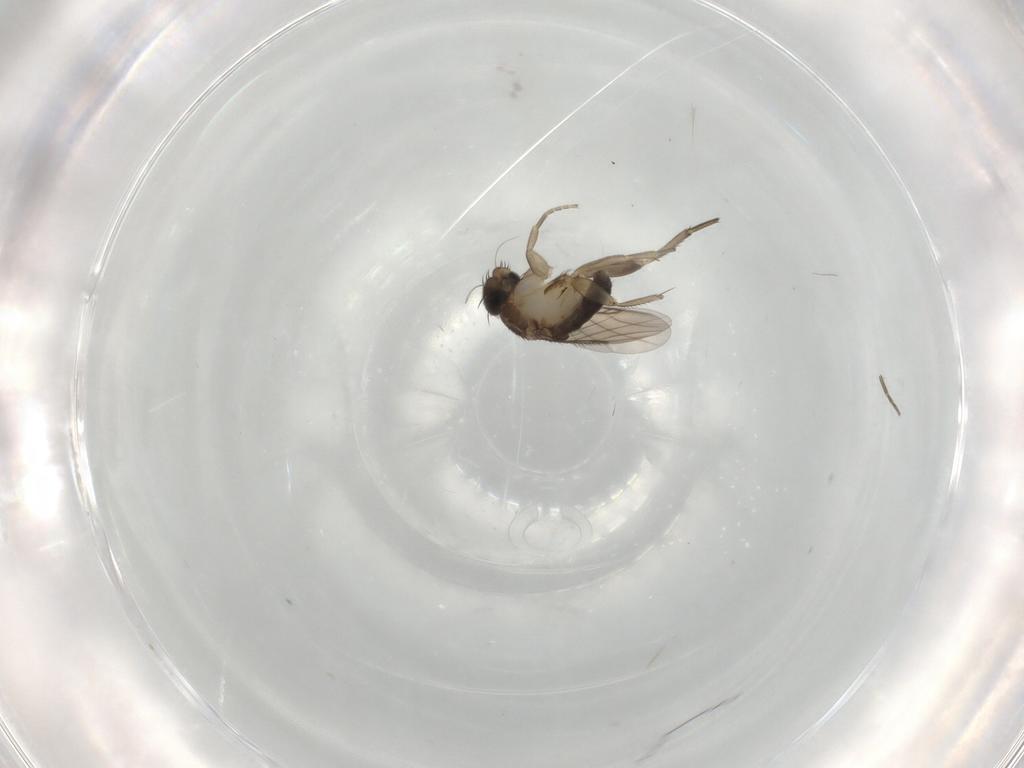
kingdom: Animalia
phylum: Arthropoda
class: Insecta
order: Diptera
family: Phoridae
